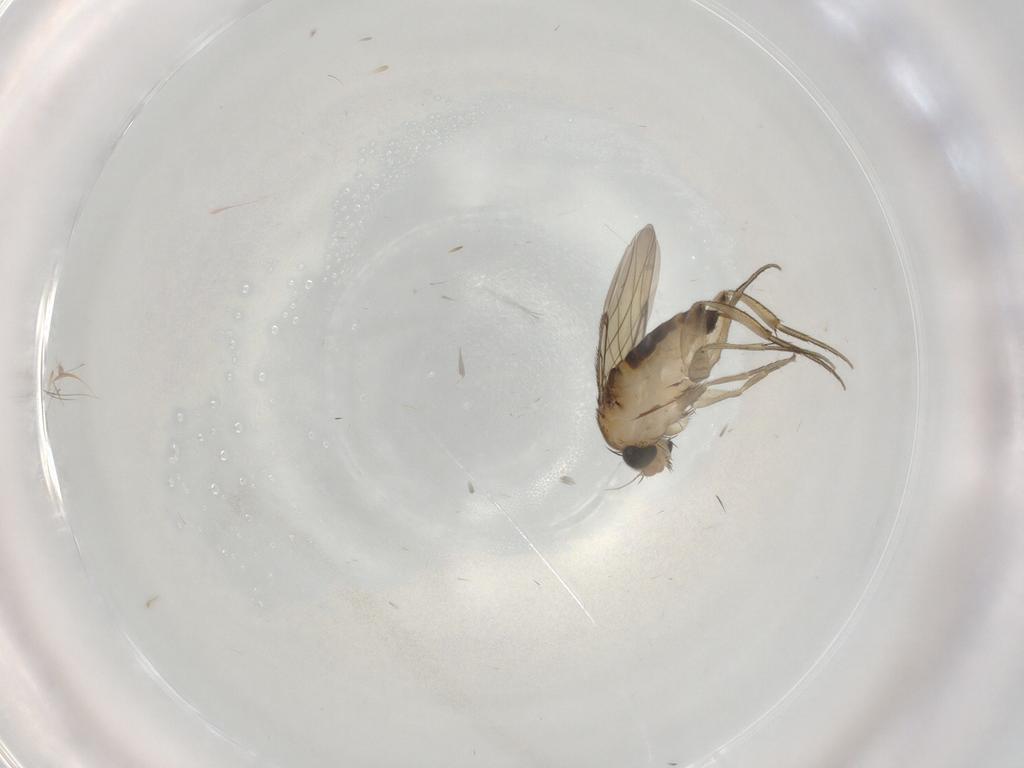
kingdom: Animalia
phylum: Arthropoda
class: Insecta
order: Diptera
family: Phoridae
